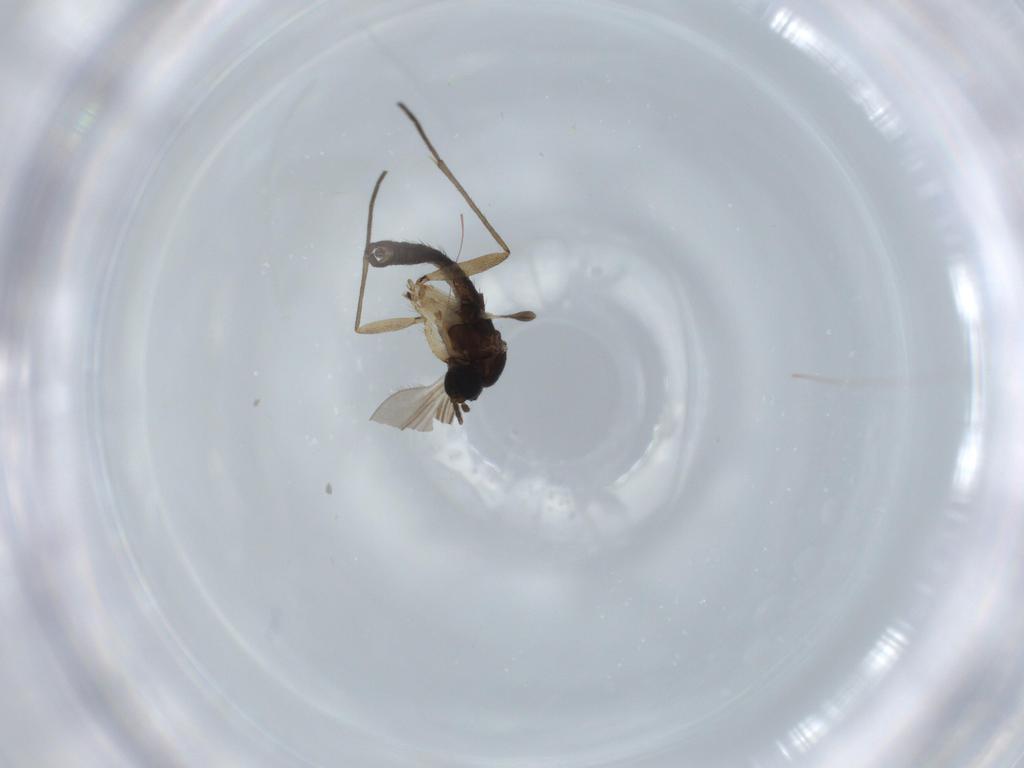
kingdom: Animalia
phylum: Arthropoda
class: Insecta
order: Diptera
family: Sciaridae
